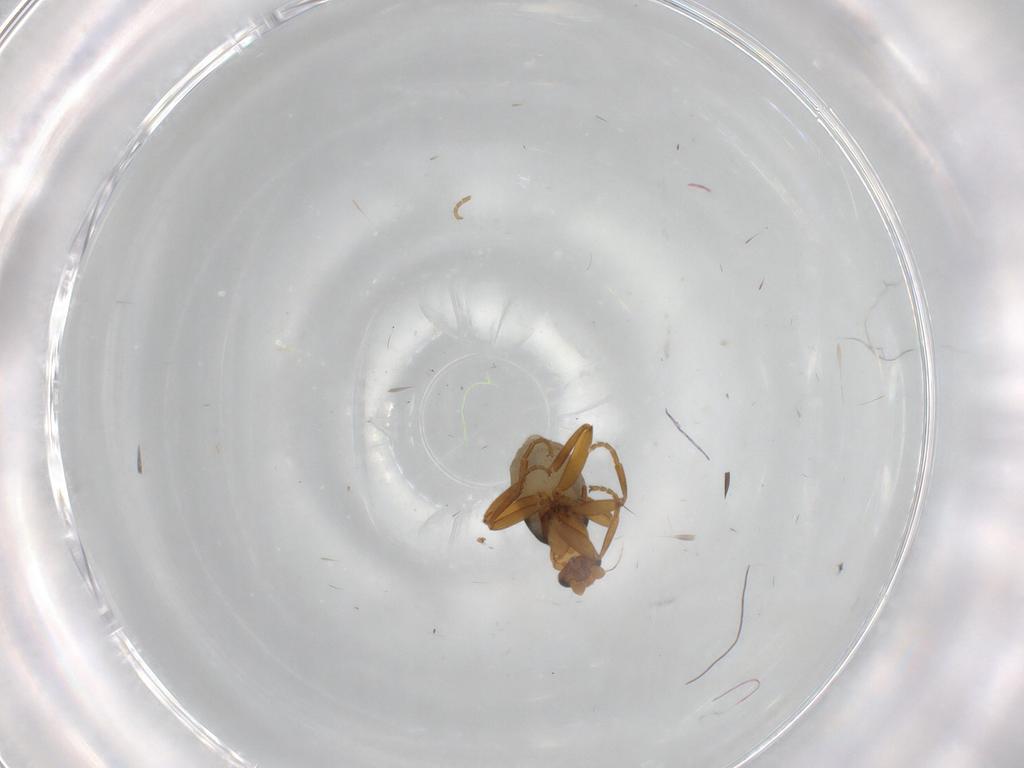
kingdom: Animalia
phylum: Arthropoda
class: Insecta
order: Diptera
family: Phoridae
